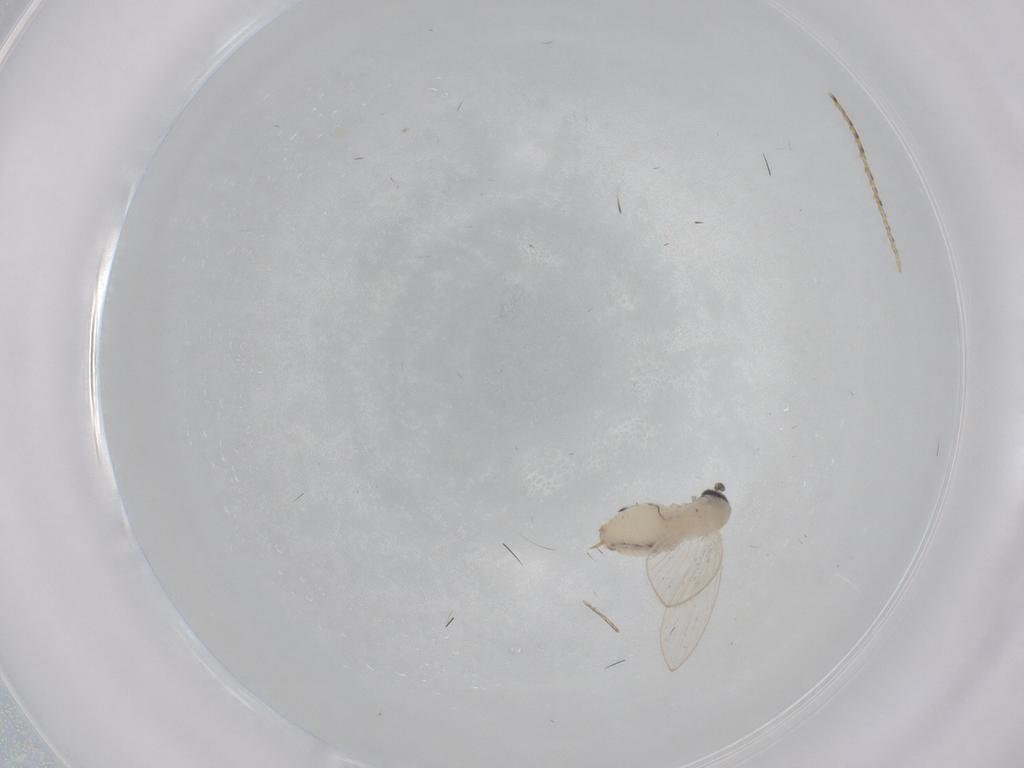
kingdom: Animalia
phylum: Arthropoda
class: Insecta
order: Diptera
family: Psychodidae
